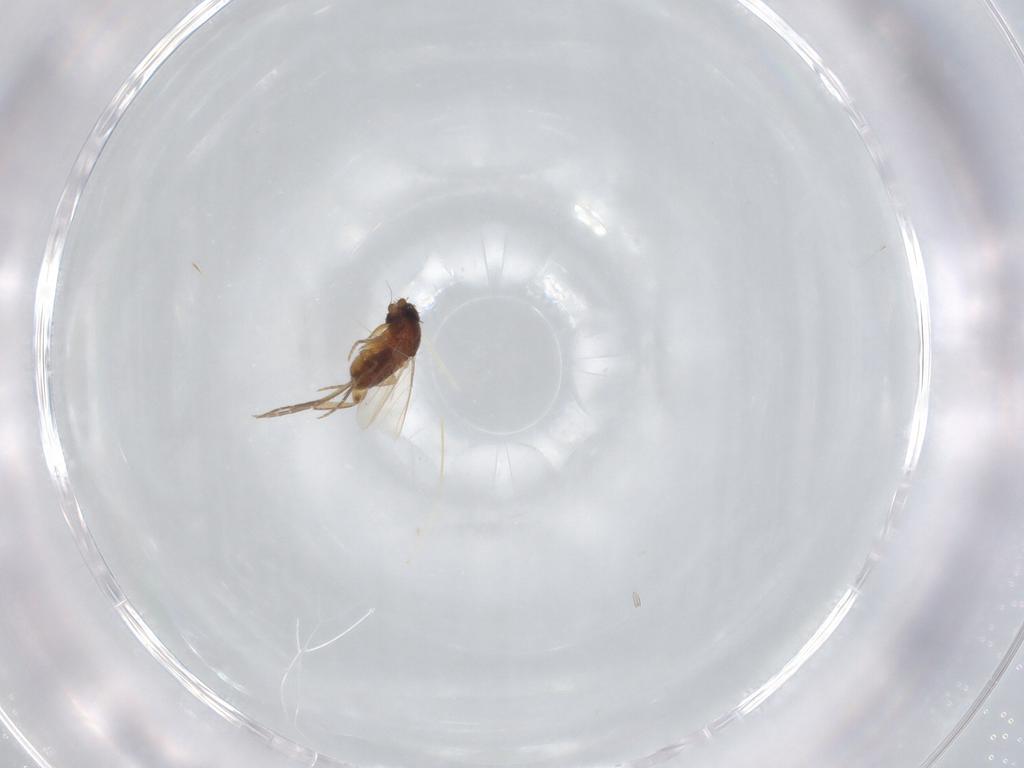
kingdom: Animalia
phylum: Arthropoda
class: Insecta
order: Diptera
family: Phoridae
